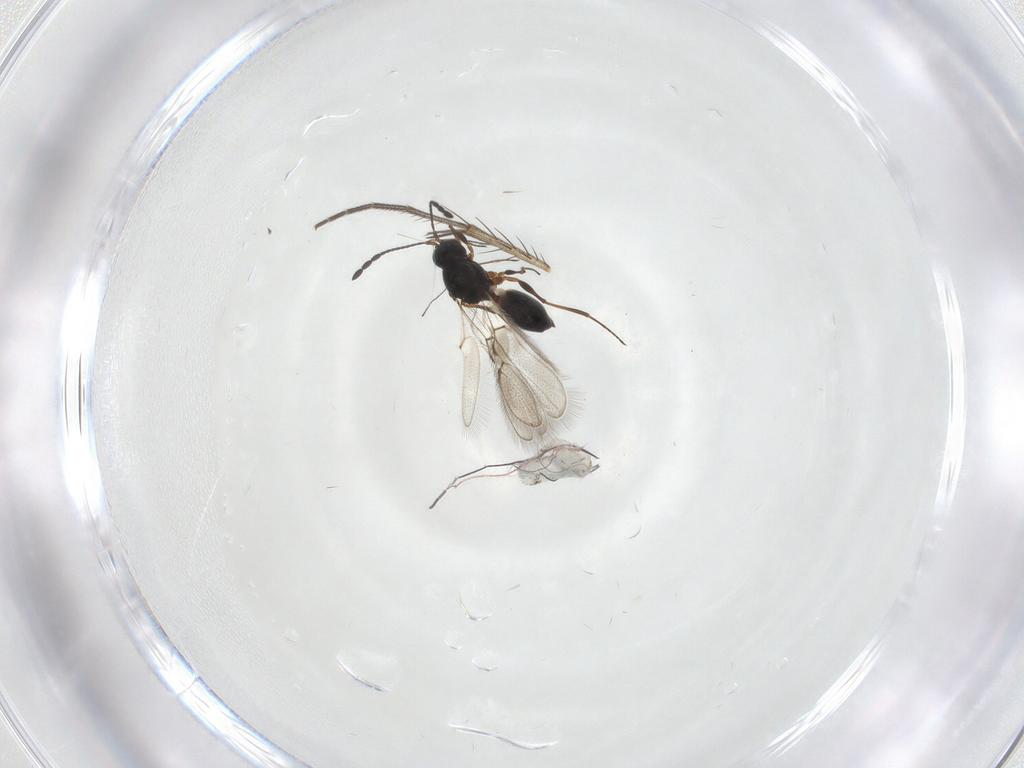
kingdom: Animalia
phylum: Arthropoda
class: Insecta
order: Hymenoptera
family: Figitidae
